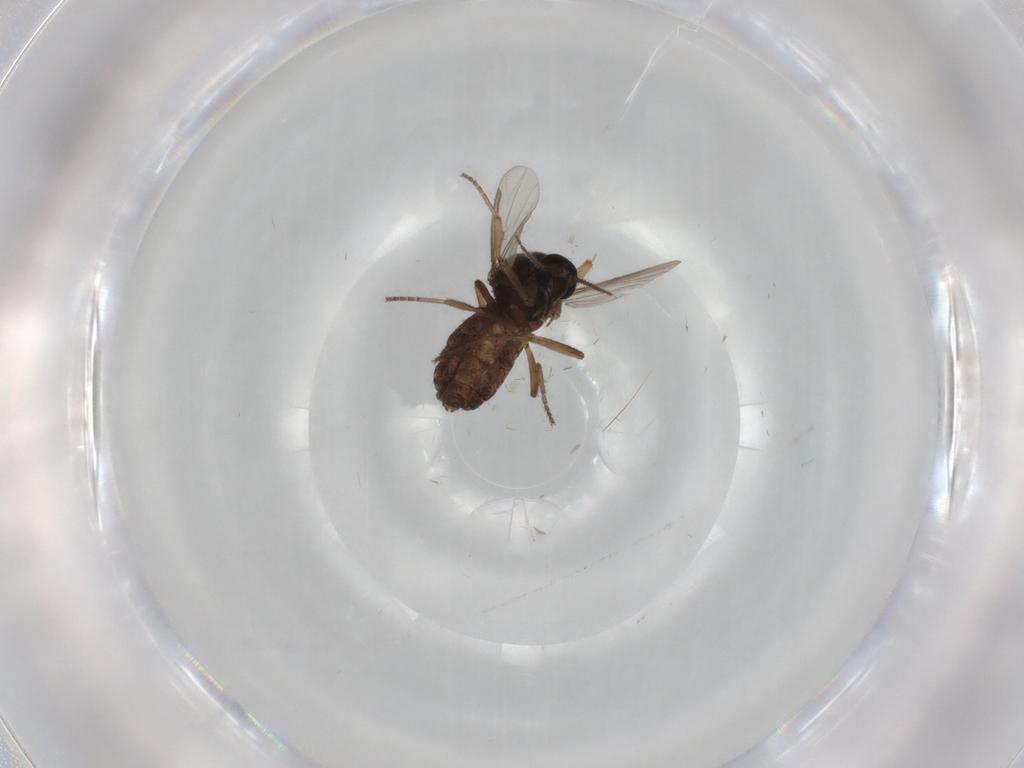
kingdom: Animalia
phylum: Arthropoda
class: Insecta
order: Diptera
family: Ceratopogonidae
